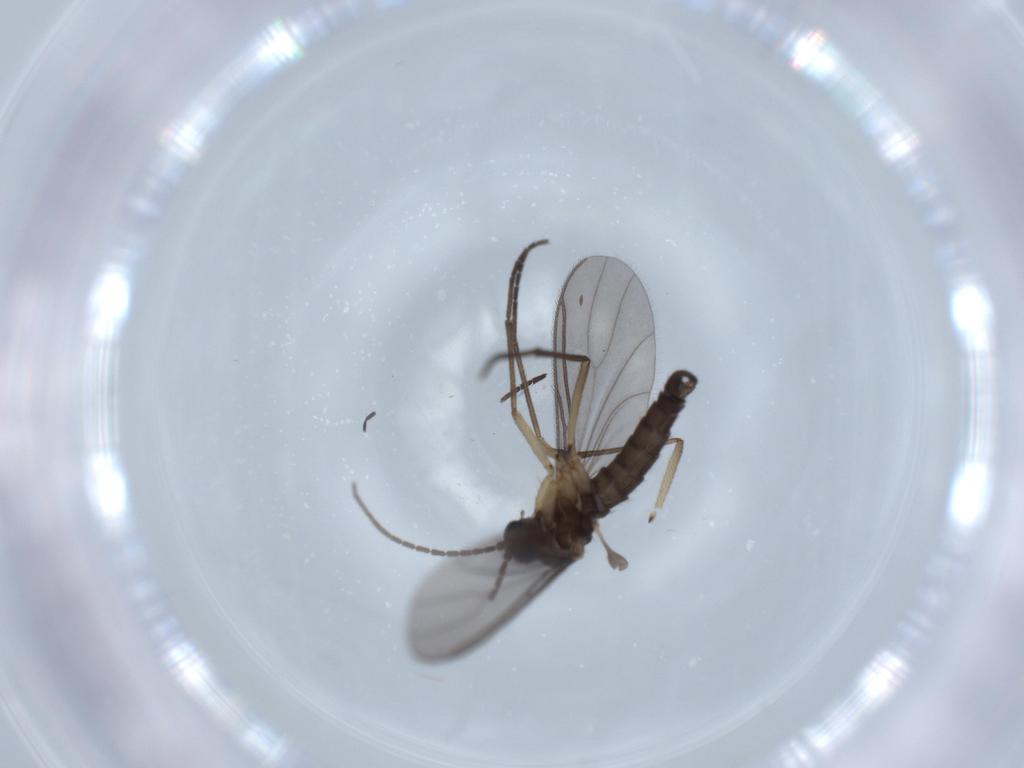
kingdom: Animalia
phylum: Arthropoda
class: Insecta
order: Diptera
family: Sciaridae
